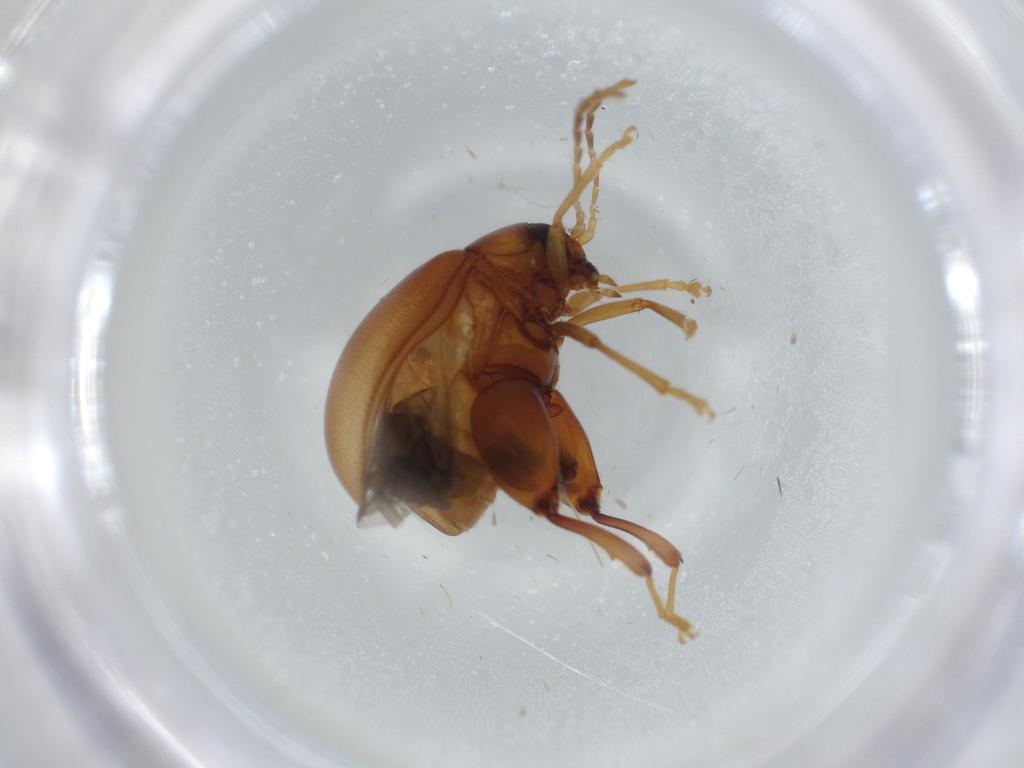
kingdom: Animalia
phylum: Arthropoda
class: Insecta
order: Coleoptera
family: Chrysomelidae
